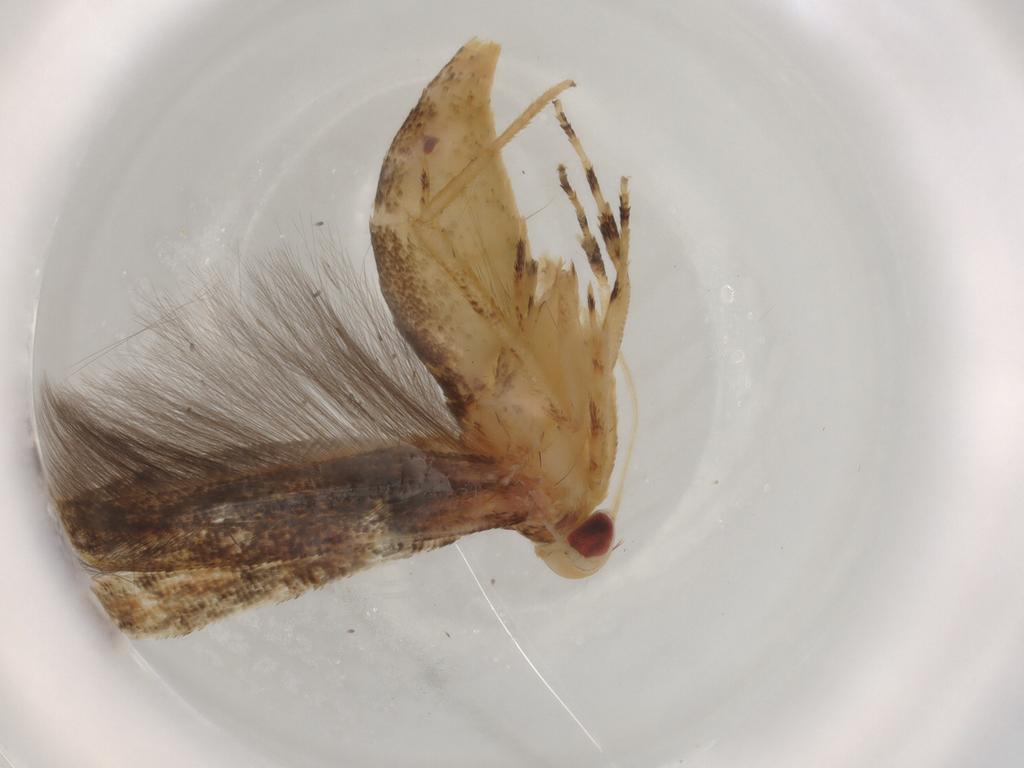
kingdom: Animalia
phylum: Arthropoda
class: Insecta
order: Lepidoptera
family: Cosmopterigidae
